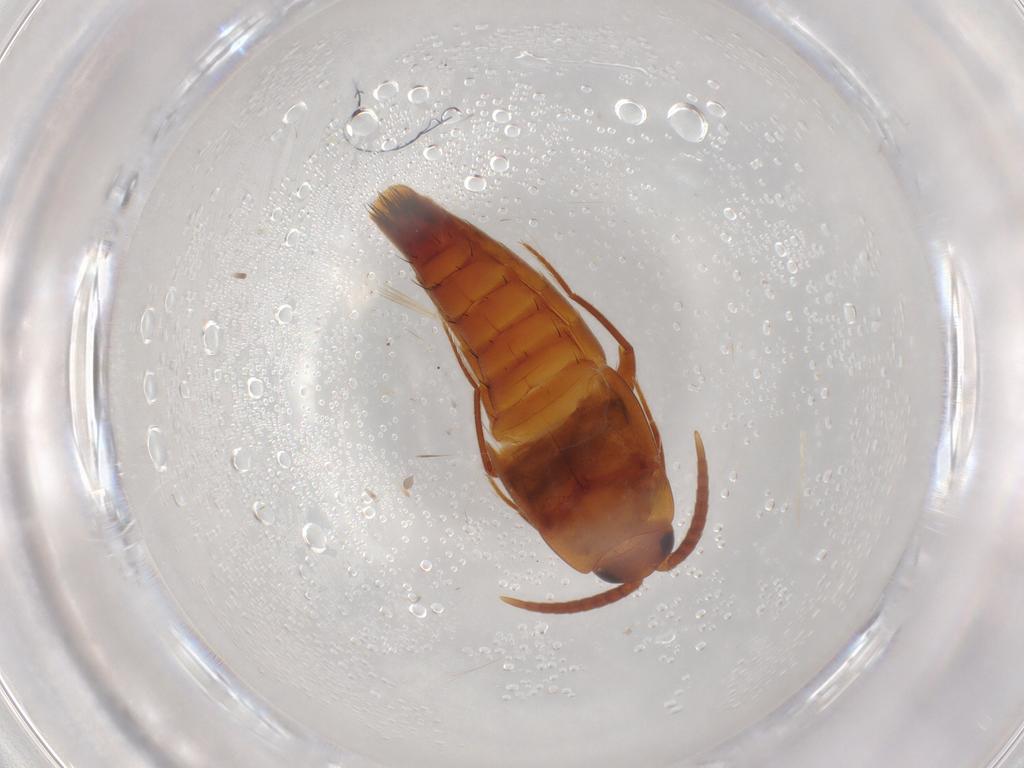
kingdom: Animalia
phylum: Arthropoda
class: Insecta
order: Coleoptera
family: Staphylinidae
